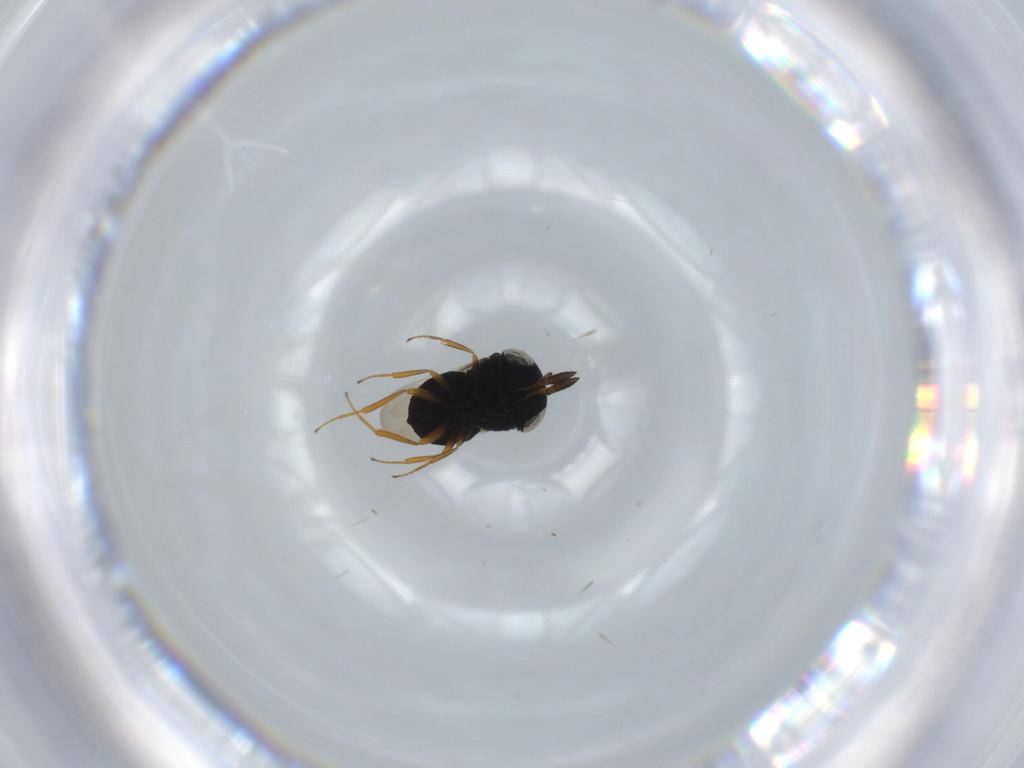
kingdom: Animalia
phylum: Arthropoda
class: Insecta
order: Hymenoptera
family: Scelionidae
